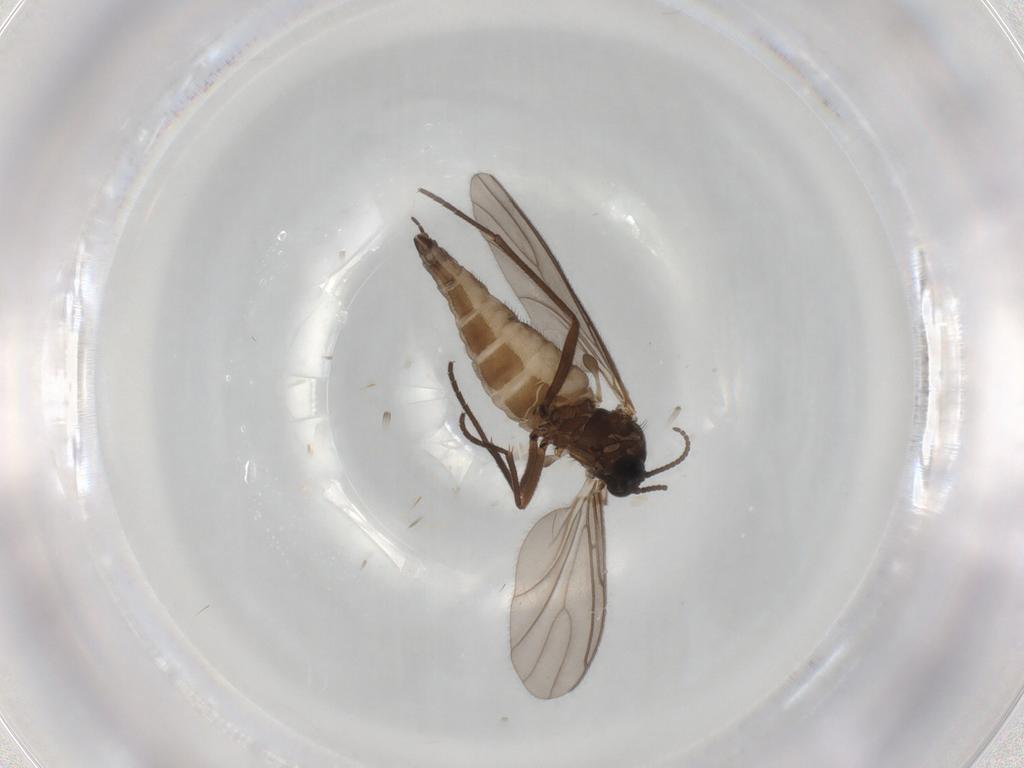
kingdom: Animalia
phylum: Arthropoda
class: Insecta
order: Diptera
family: Sciaridae
